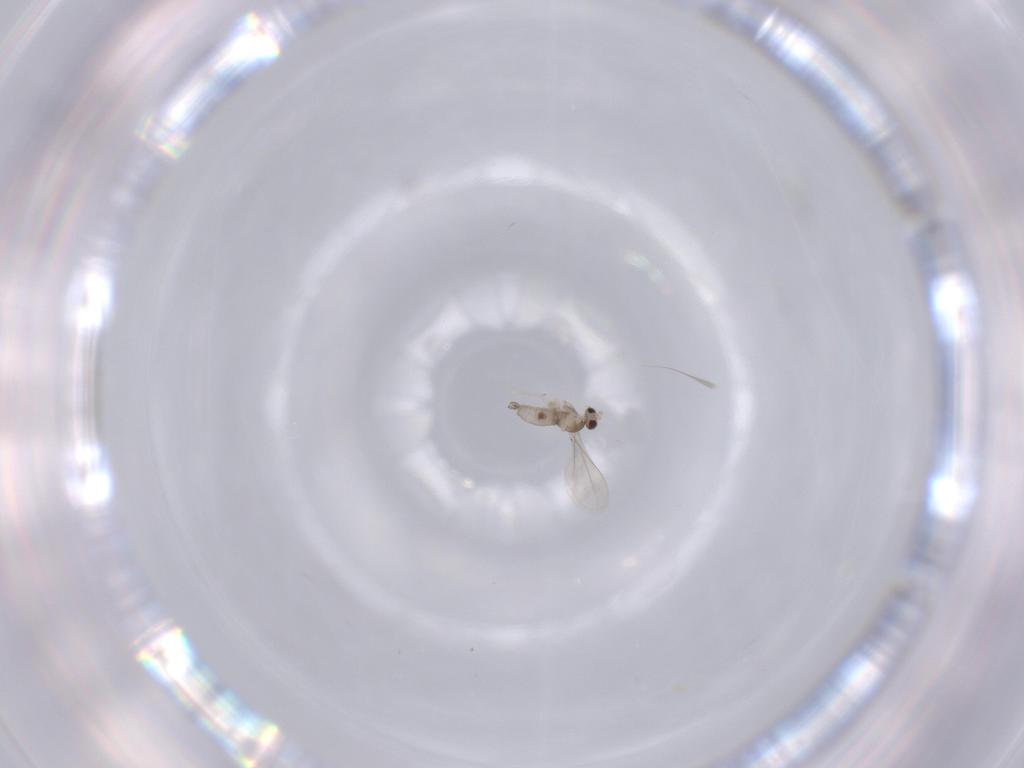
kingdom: Animalia
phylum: Arthropoda
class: Insecta
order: Diptera
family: Cecidomyiidae
